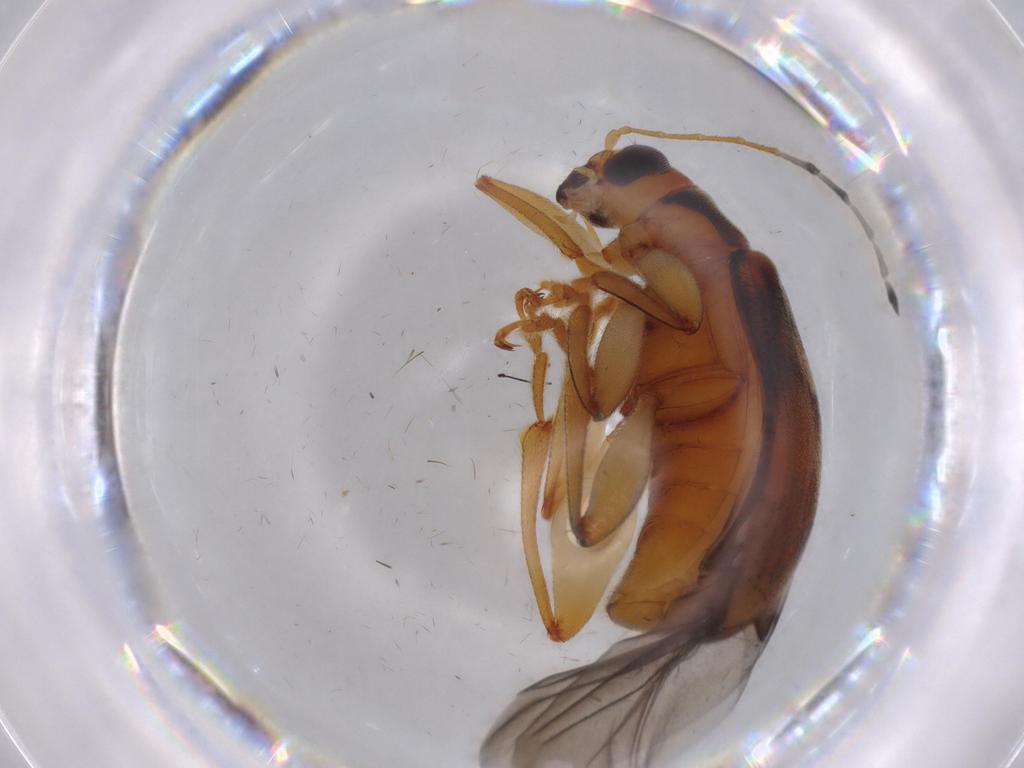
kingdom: Animalia
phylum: Arthropoda
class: Insecta
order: Coleoptera
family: Chrysomelidae
